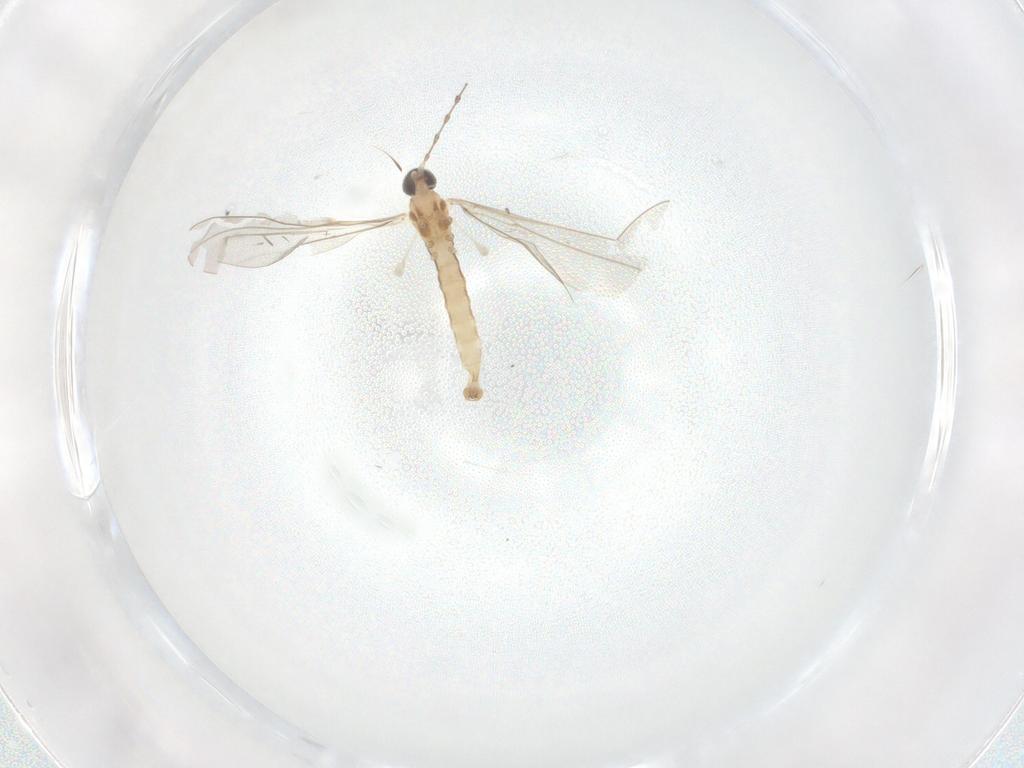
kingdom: Animalia
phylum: Arthropoda
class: Insecta
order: Diptera
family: Cecidomyiidae
